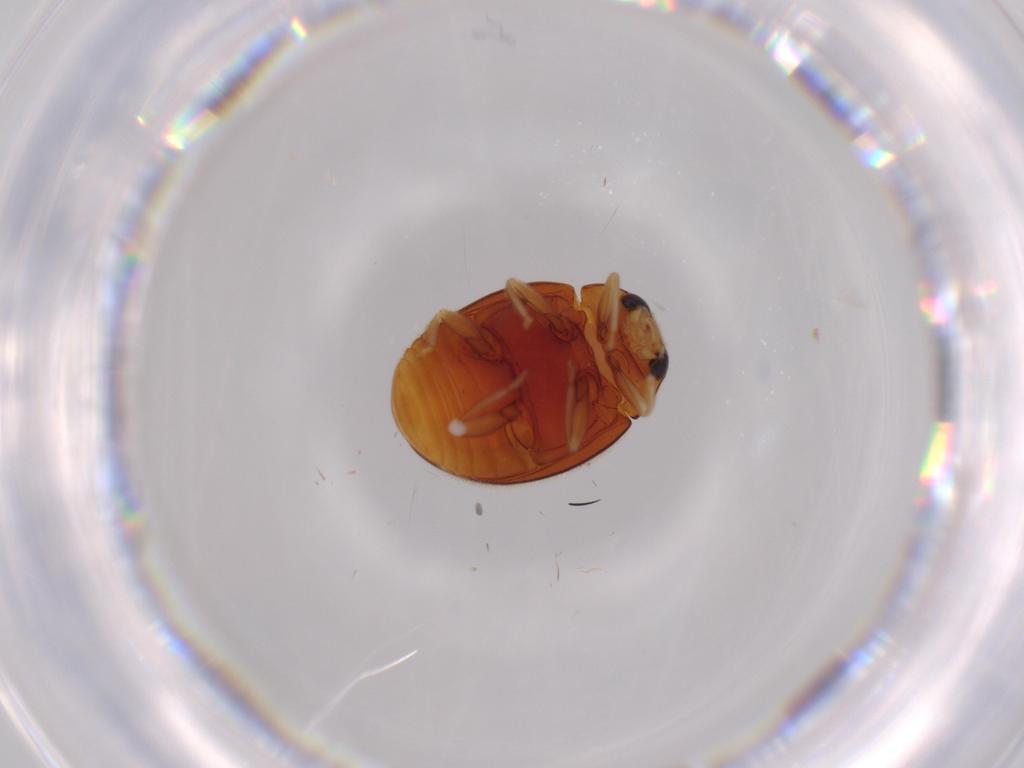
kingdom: Animalia
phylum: Arthropoda
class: Insecta
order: Coleoptera
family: Coccinellidae
